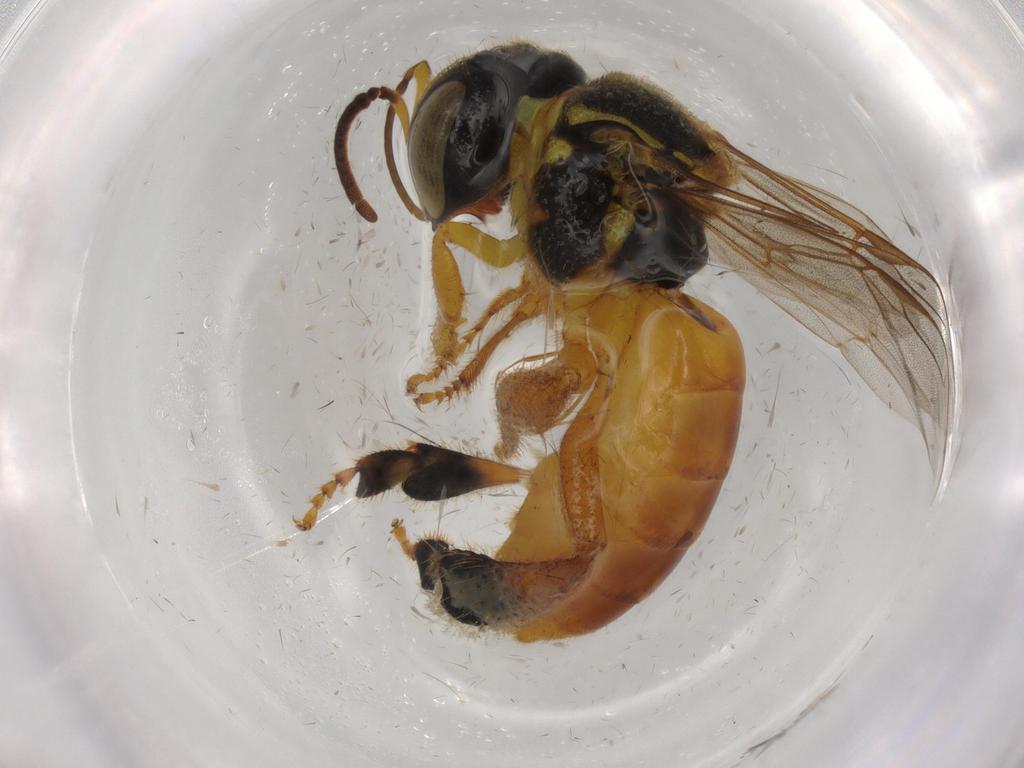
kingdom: Animalia
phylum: Arthropoda
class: Insecta
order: Hymenoptera
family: Apidae
